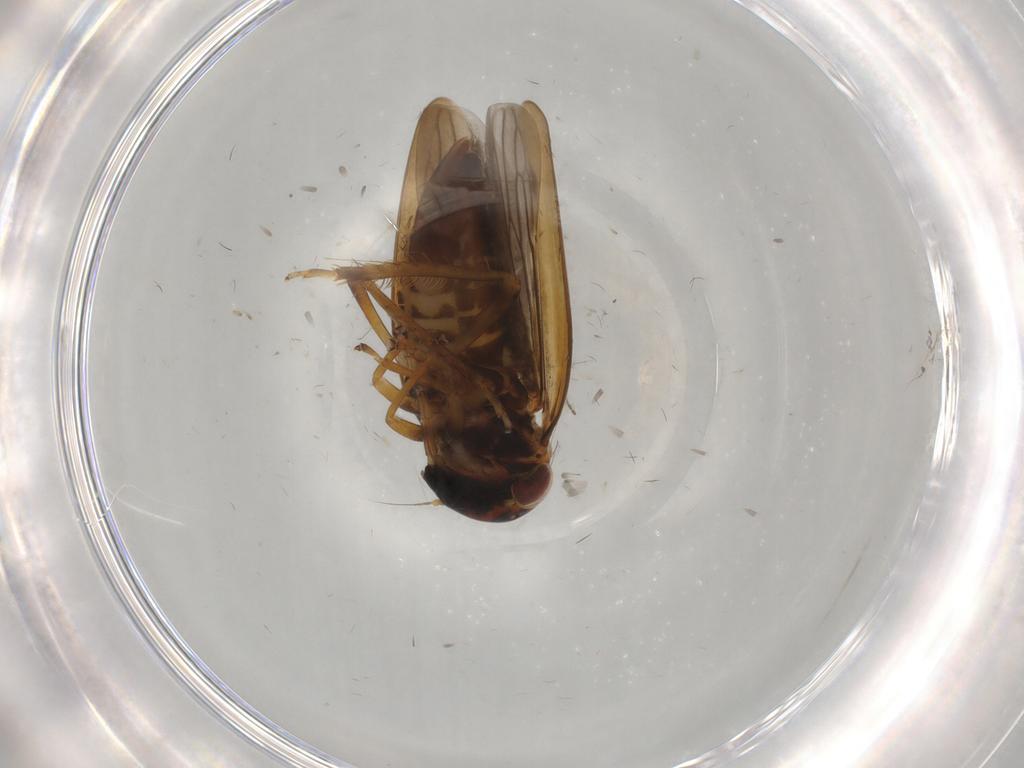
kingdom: Animalia
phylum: Arthropoda
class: Insecta
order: Hemiptera
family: Cicadellidae
